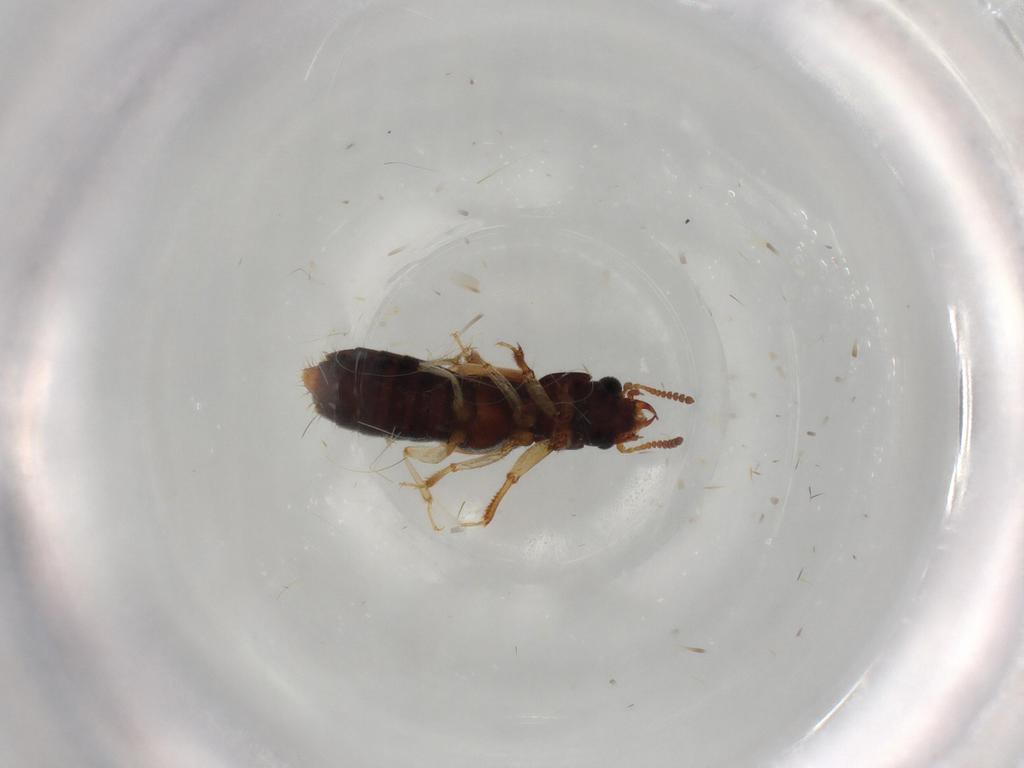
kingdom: Animalia
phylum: Arthropoda
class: Insecta
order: Coleoptera
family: Staphylinidae
